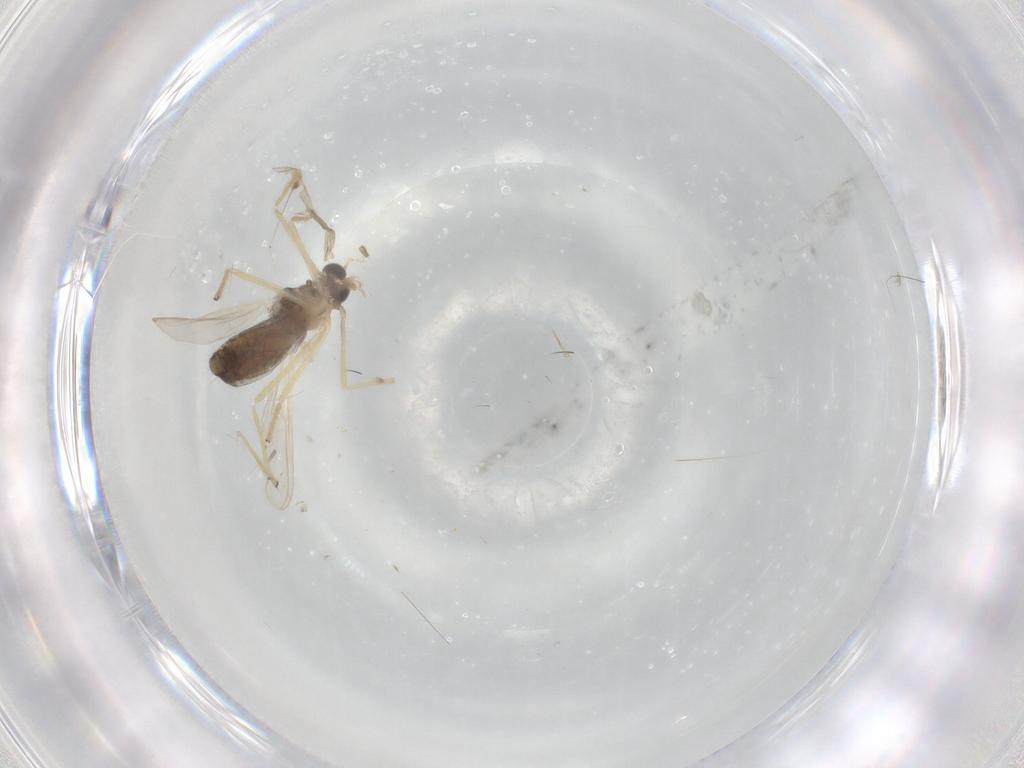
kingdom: Animalia
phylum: Arthropoda
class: Insecta
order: Diptera
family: Chironomidae
